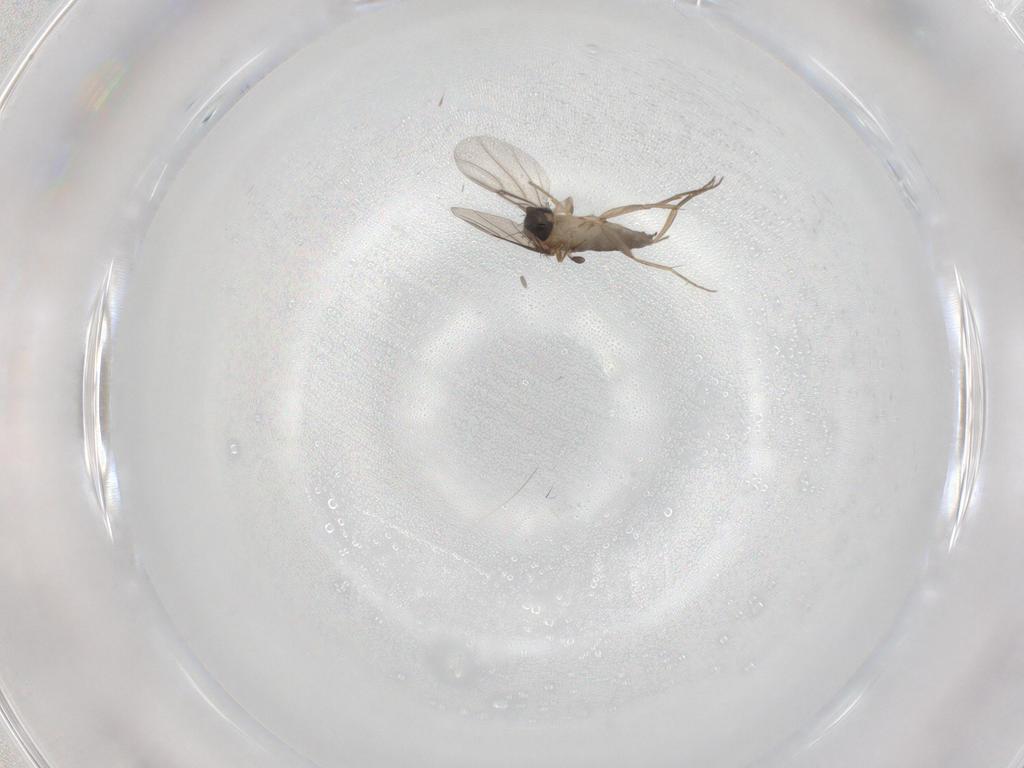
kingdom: Animalia
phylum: Arthropoda
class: Insecta
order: Diptera
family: Phoridae
